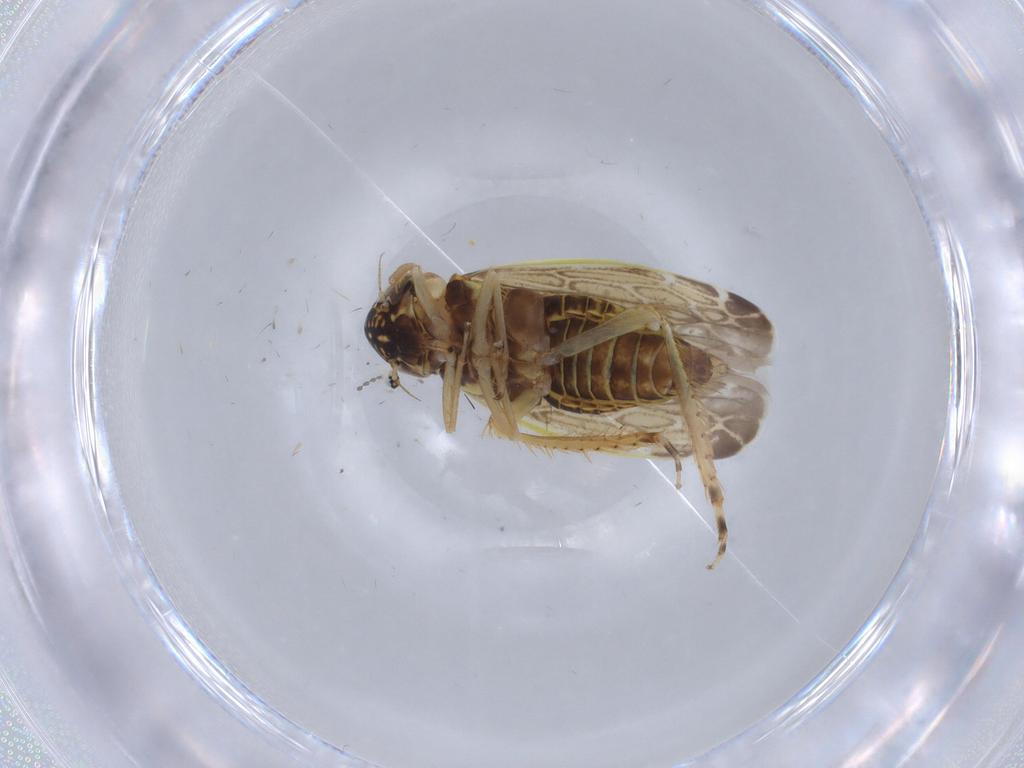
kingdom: Animalia
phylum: Arthropoda
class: Insecta
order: Hemiptera
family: Cicadellidae
